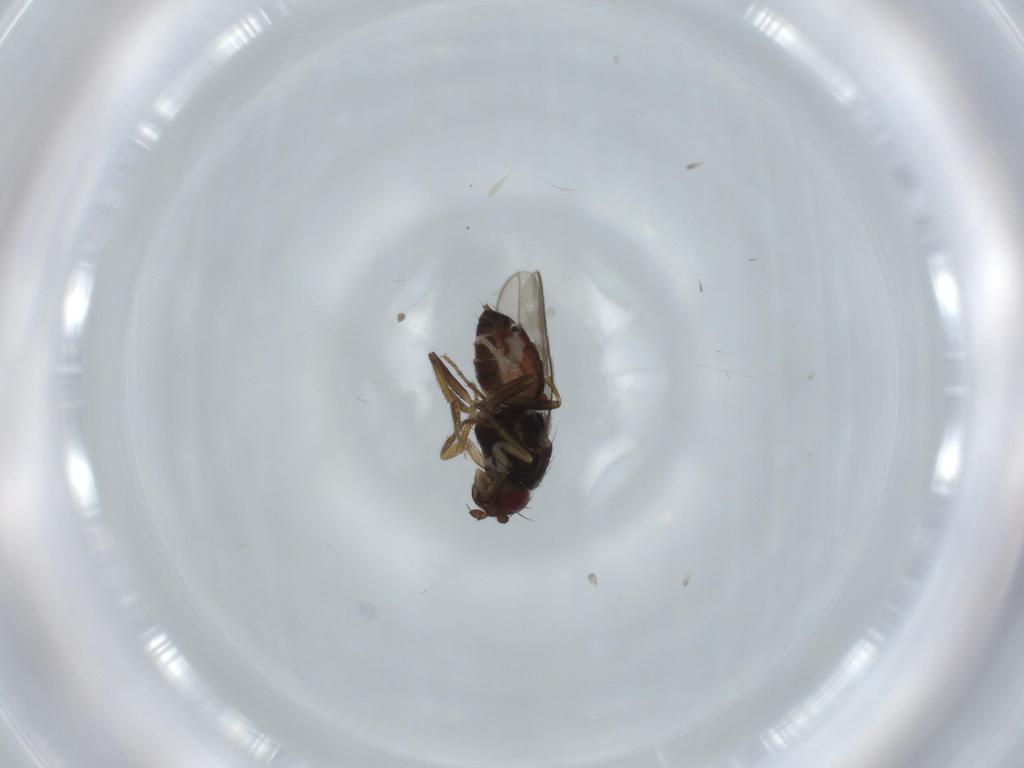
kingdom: Animalia
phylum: Arthropoda
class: Insecta
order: Diptera
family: Sphaeroceridae
